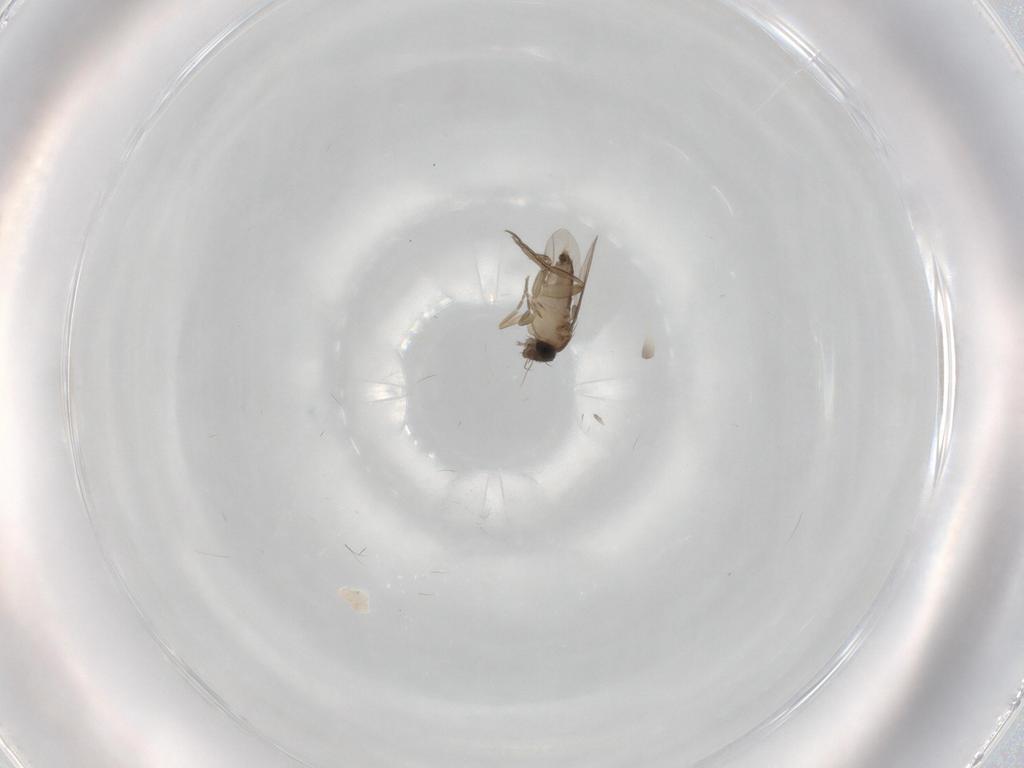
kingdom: Animalia
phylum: Arthropoda
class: Insecta
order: Diptera
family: Phoridae
